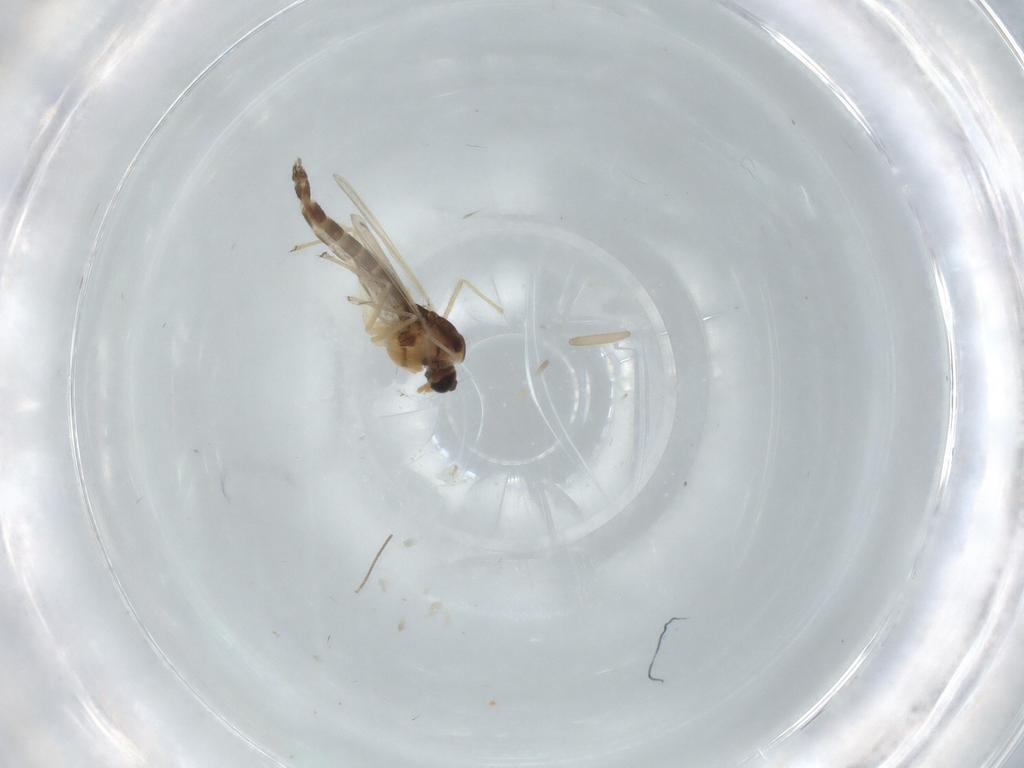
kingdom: Animalia
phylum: Arthropoda
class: Insecta
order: Diptera
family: Chironomidae
